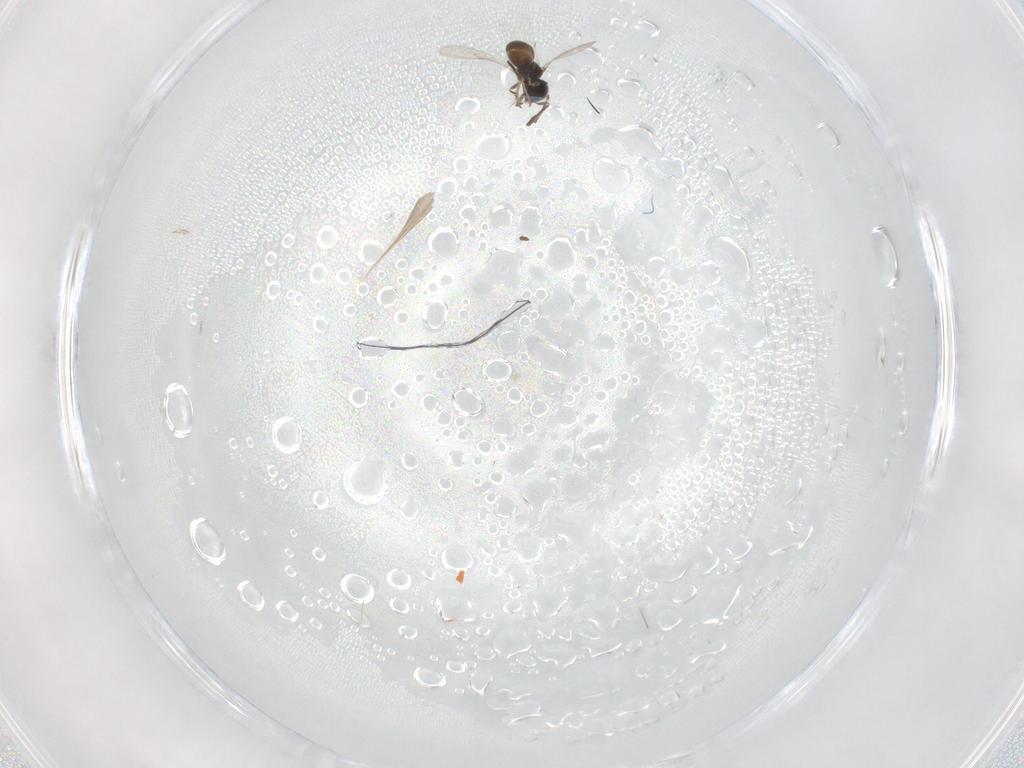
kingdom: Animalia
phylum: Arthropoda
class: Insecta
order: Hymenoptera
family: Scelionidae
